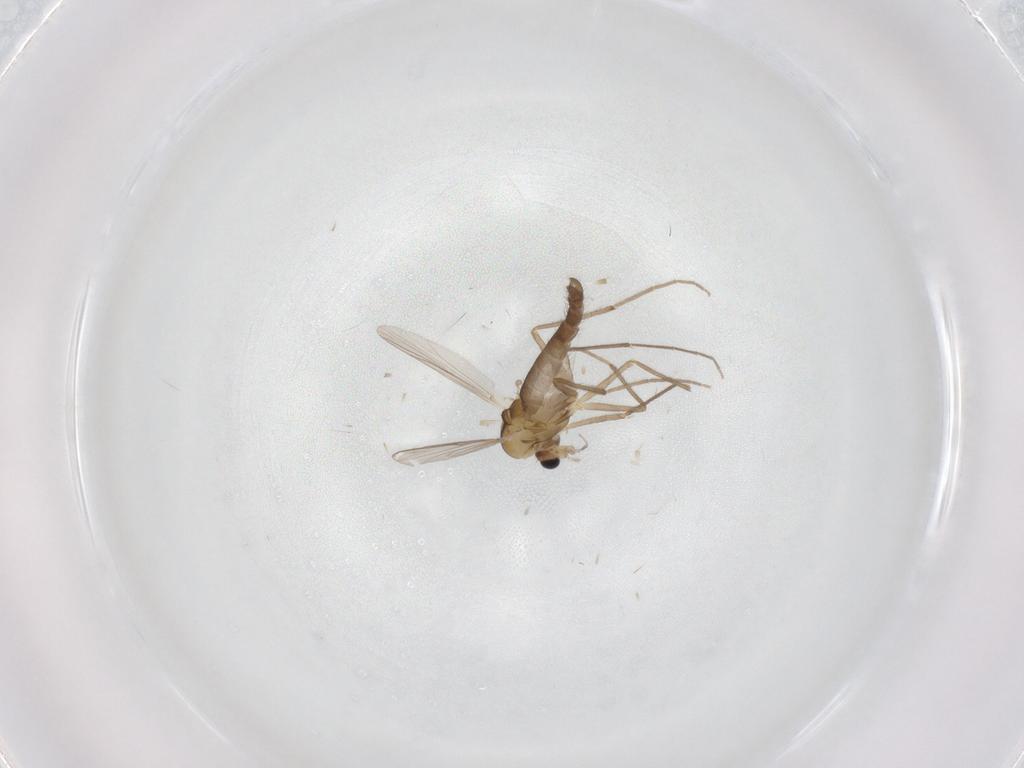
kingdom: Animalia
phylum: Arthropoda
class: Insecta
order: Diptera
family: Chironomidae
